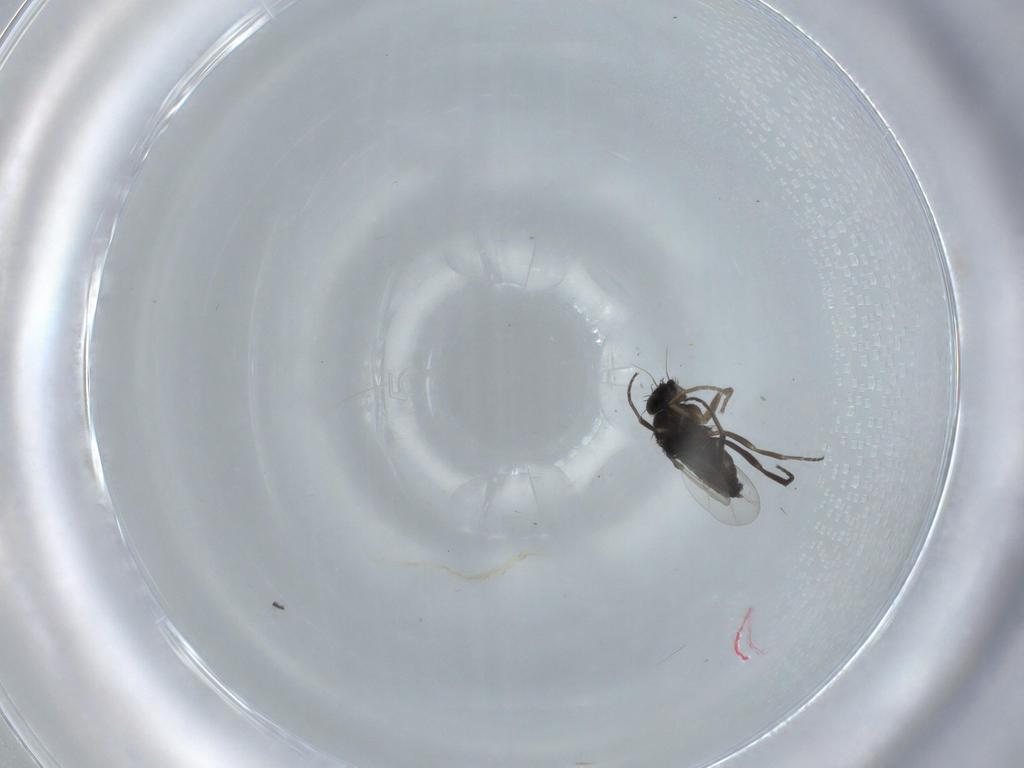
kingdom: Animalia
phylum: Arthropoda
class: Insecta
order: Diptera
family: Phoridae
